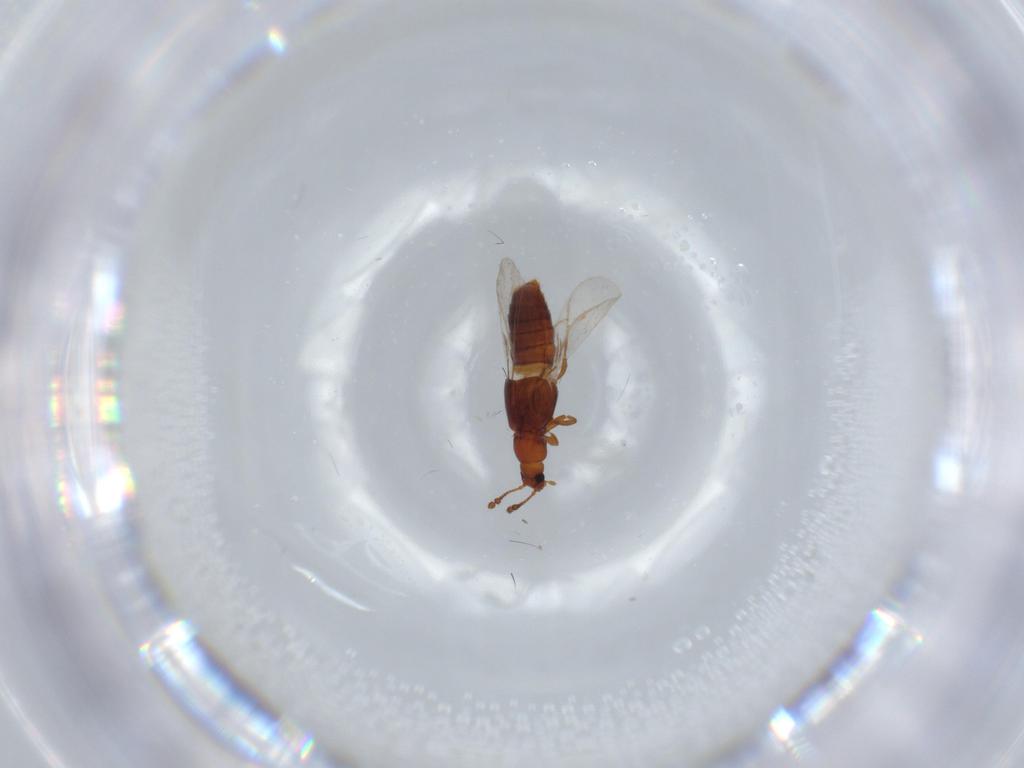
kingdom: Animalia
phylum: Arthropoda
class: Insecta
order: Coleoptera
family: Staphylinidae
